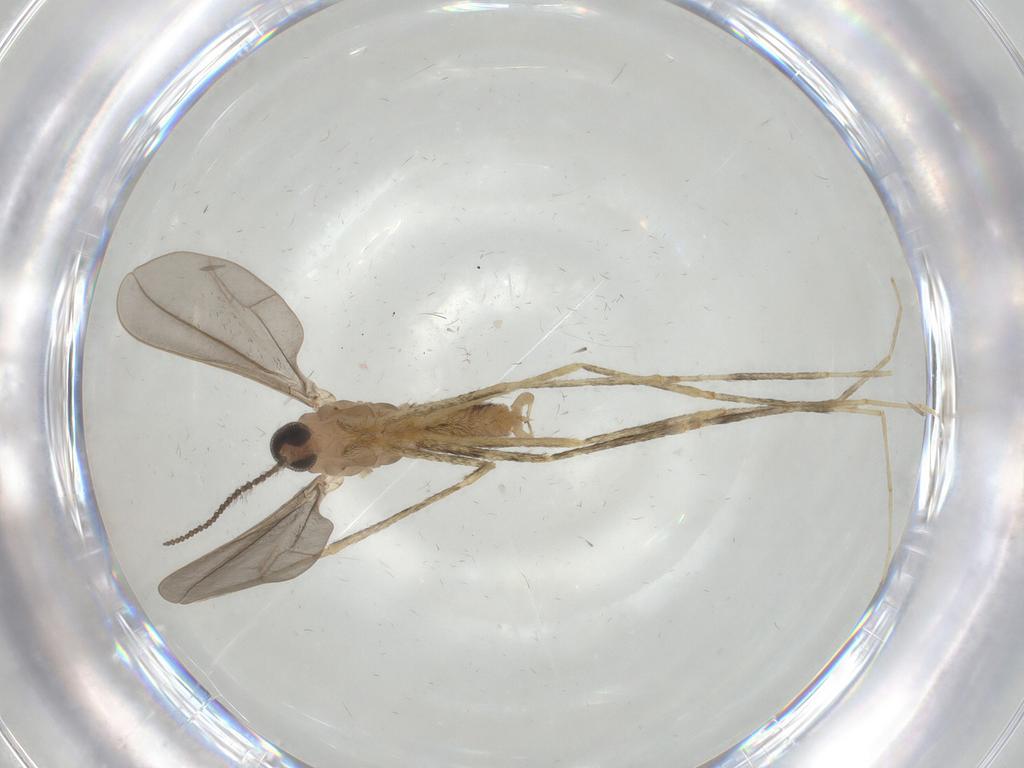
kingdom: Animalia
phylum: Arthropoda
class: Insecta
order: Diptera
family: Cecidomyiidae
